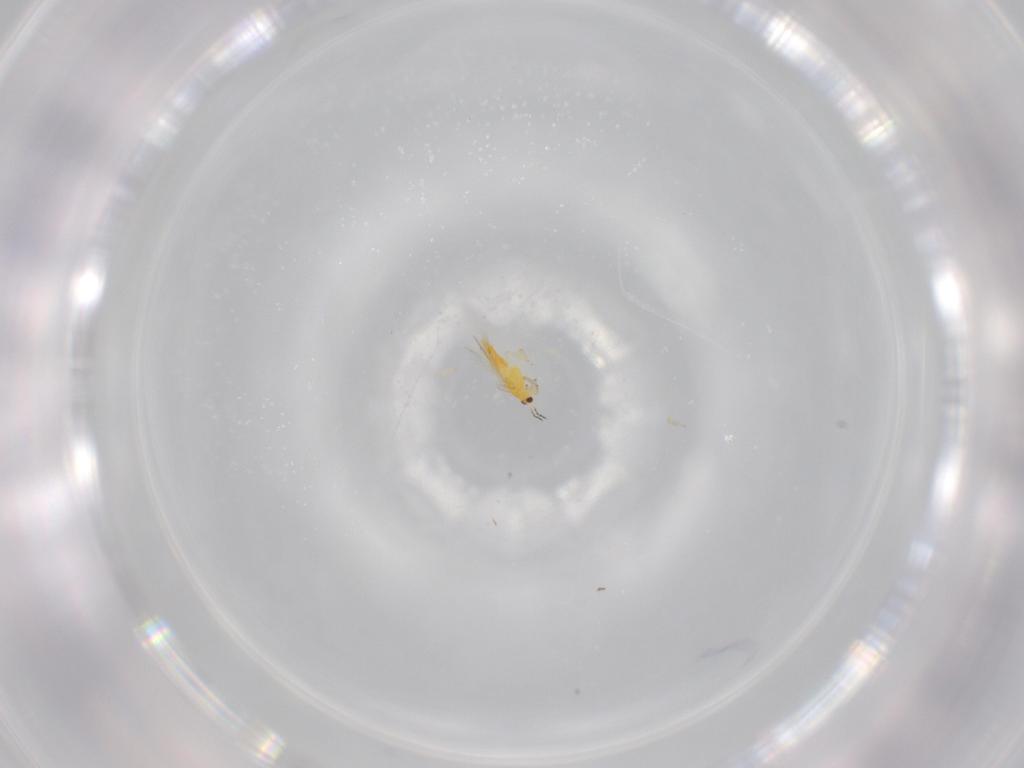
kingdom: Animalia
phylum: Arthropoda
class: Insecta
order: Thysanoptera
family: Thripidae
